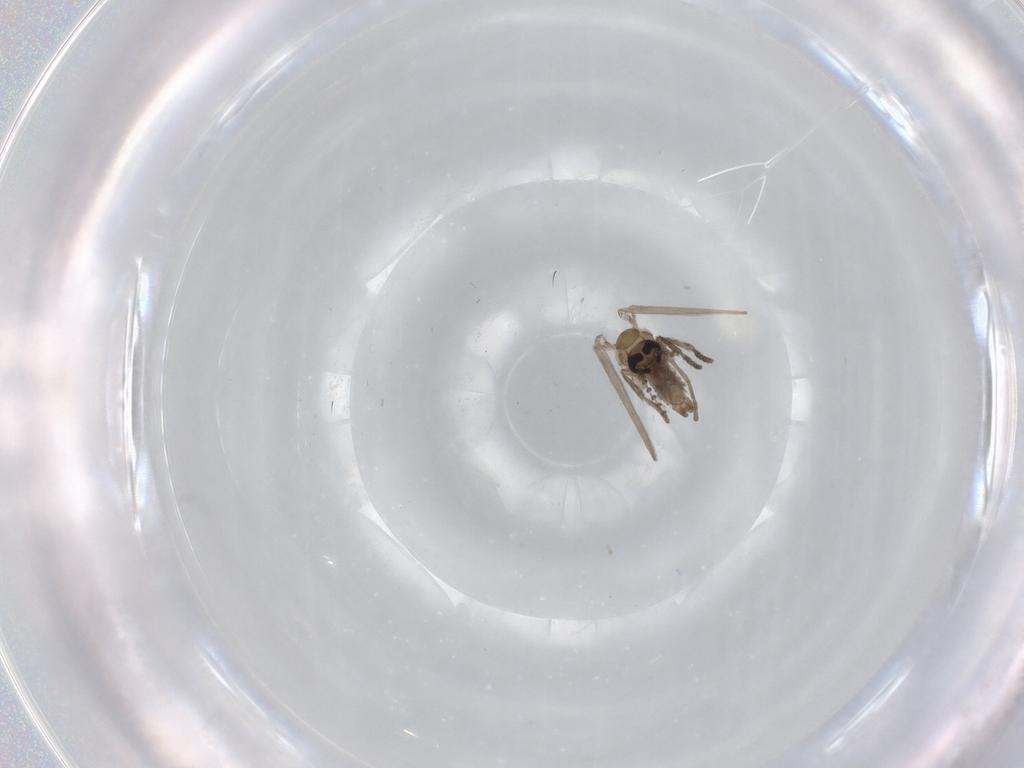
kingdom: Animalia
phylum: Arthropoda
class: Insecta
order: Diptera
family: Psychodidae
